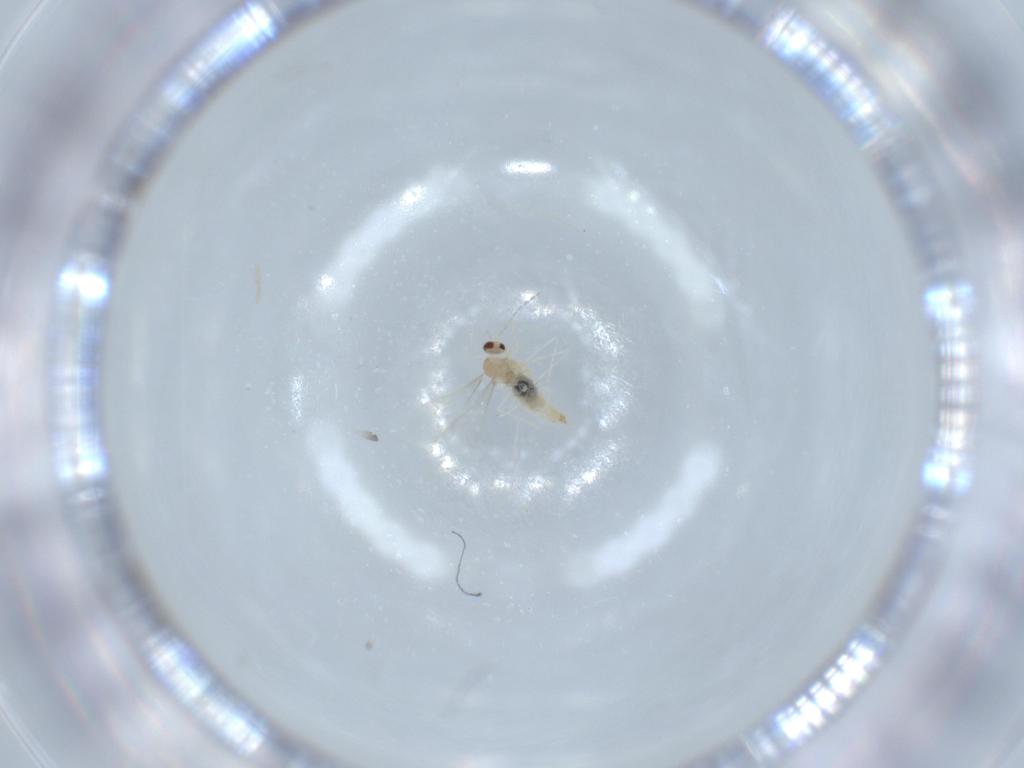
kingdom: Animalia
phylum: Arthropoda
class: Insecta
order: Diptera
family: Cecidomyiidae
